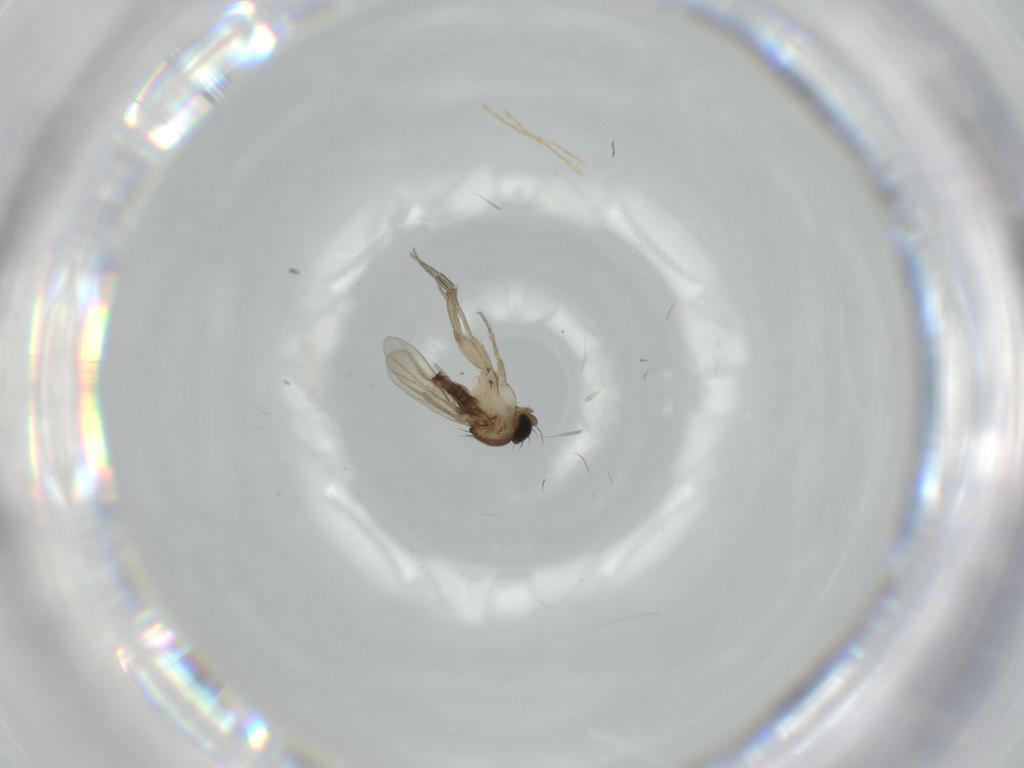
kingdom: Animalia
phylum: Arthropoda
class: Insecta
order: Diptera
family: Phoridae
